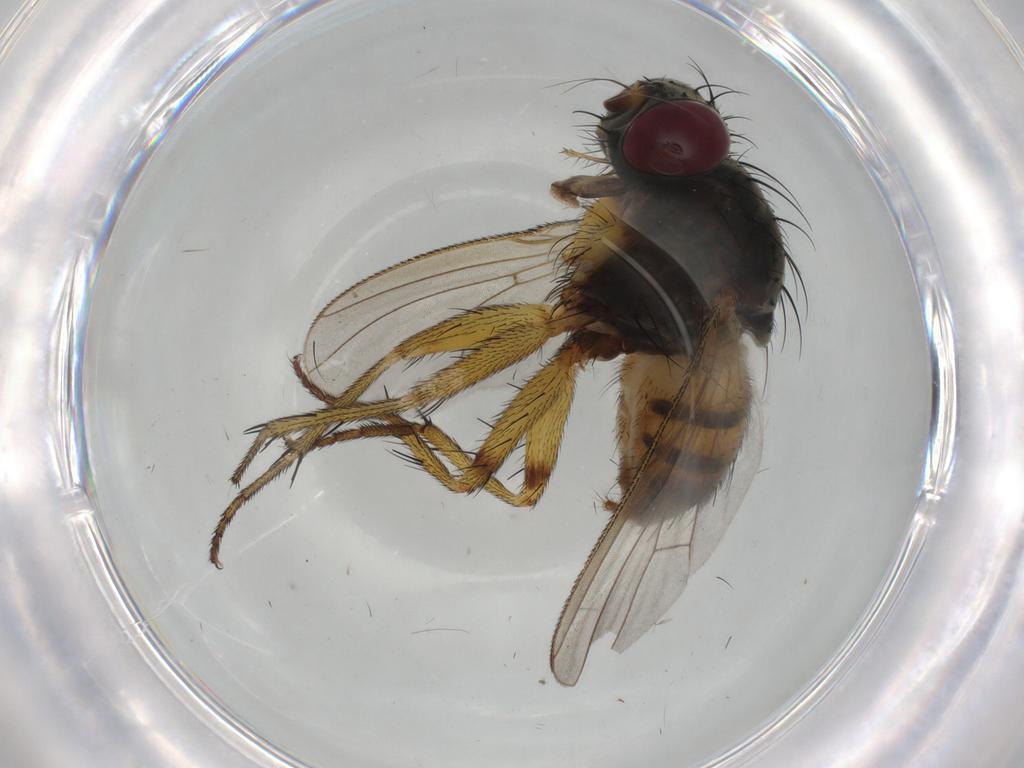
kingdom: Animalia
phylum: Arthropoda
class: Insecta
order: Diptera
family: Muscidae
